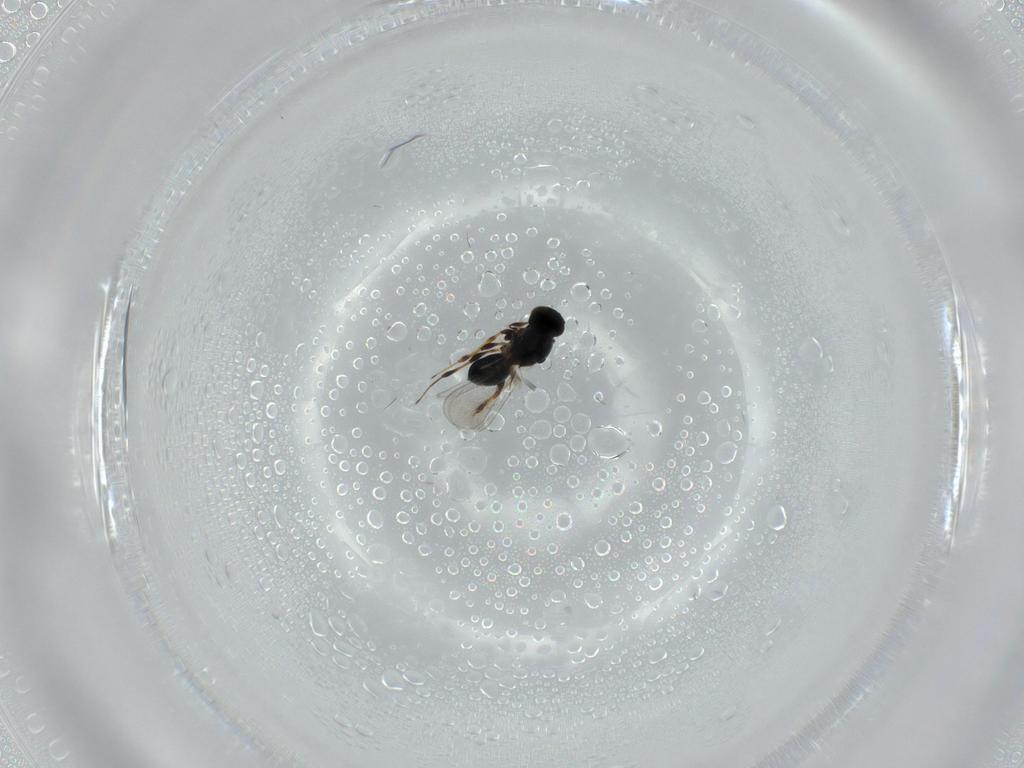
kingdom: Animalia
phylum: Arthropoda
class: Insecta
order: Hymenoptera
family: Platygastridae
